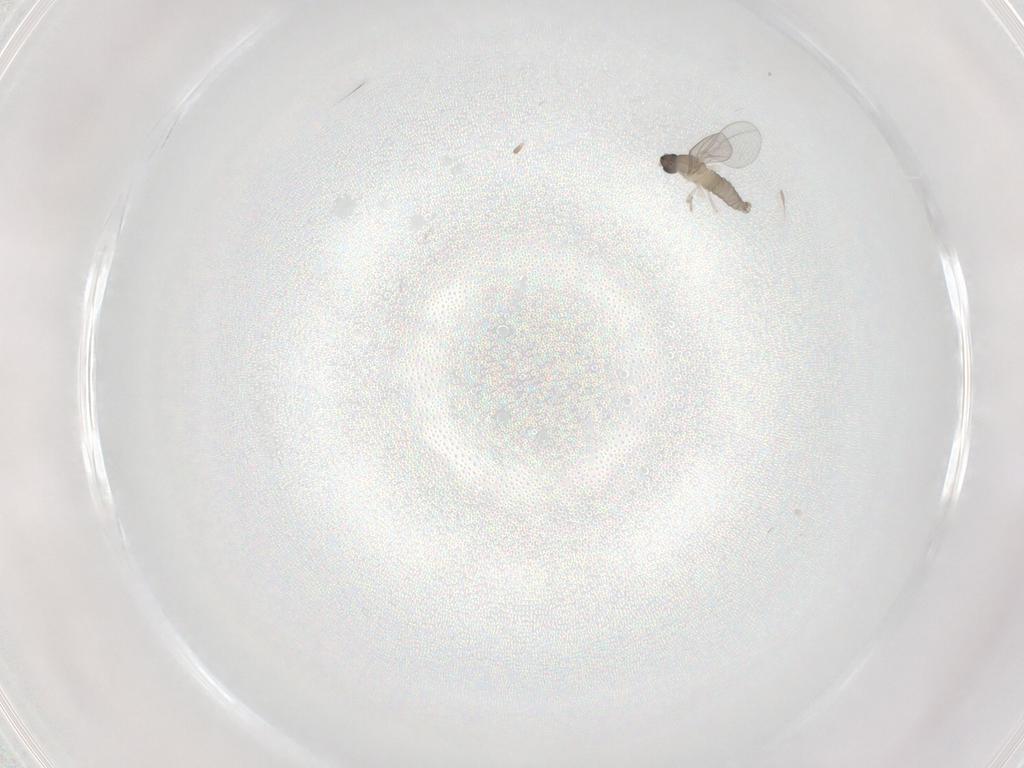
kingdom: Animalia
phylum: Arthropoda
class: Insecta
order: Diptera
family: Cecidomyiidae
